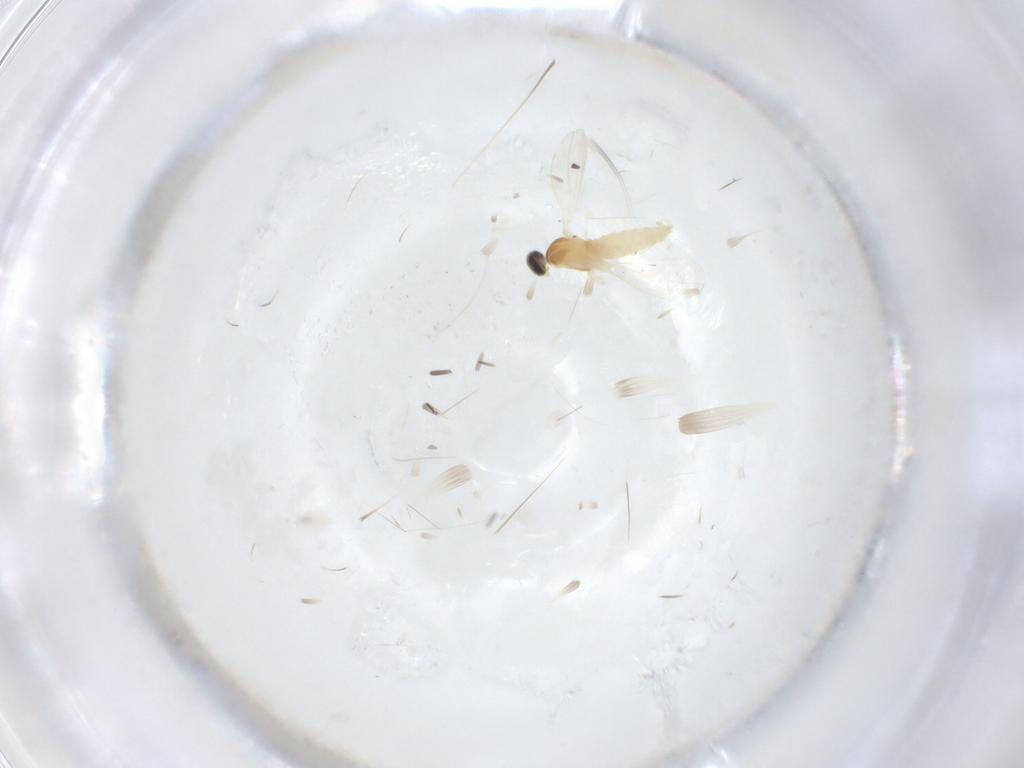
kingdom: Animalia
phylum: Arthropoda
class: Insecta
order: Diptera
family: Cecidomyiidae
